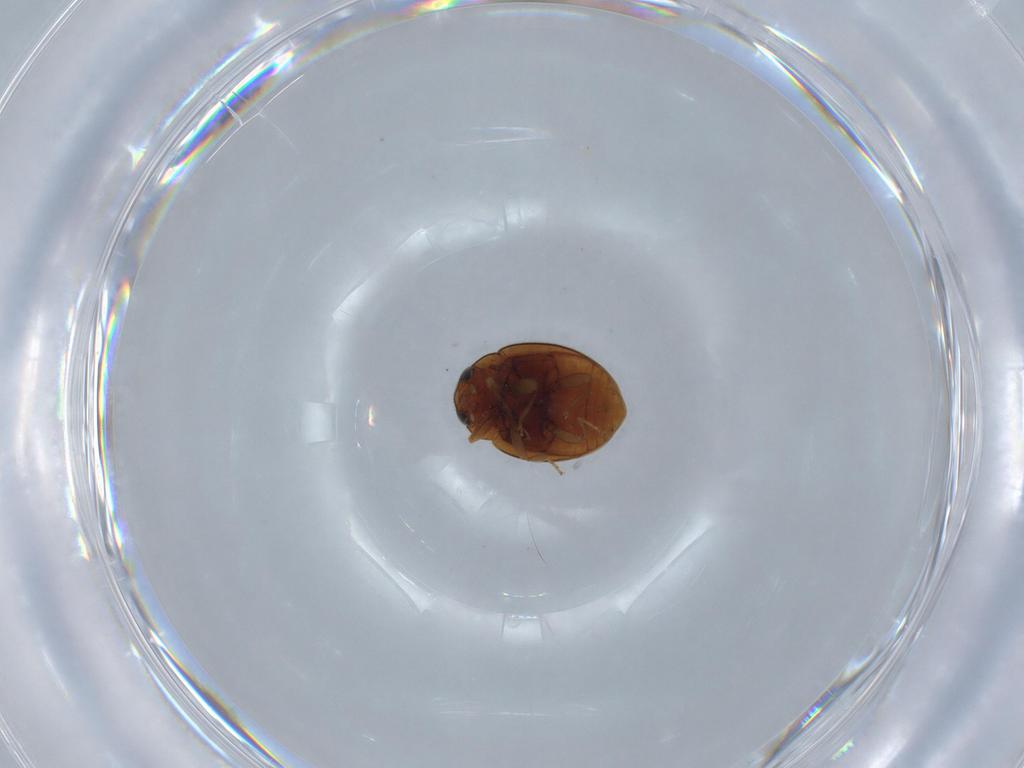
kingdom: Animalia
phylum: Arthropoda
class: Insecta
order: Coleoptera
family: Coccinellidae
